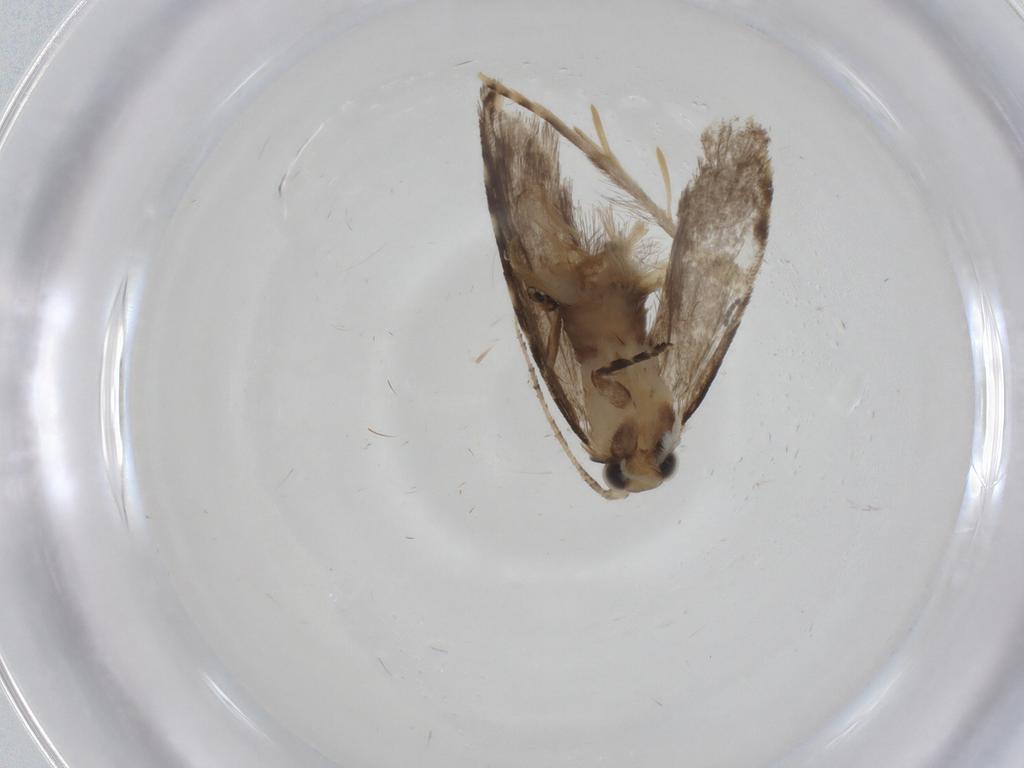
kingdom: Animalia
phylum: Arthropoda
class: Insecta
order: Lepidoptera
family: Tineidae
